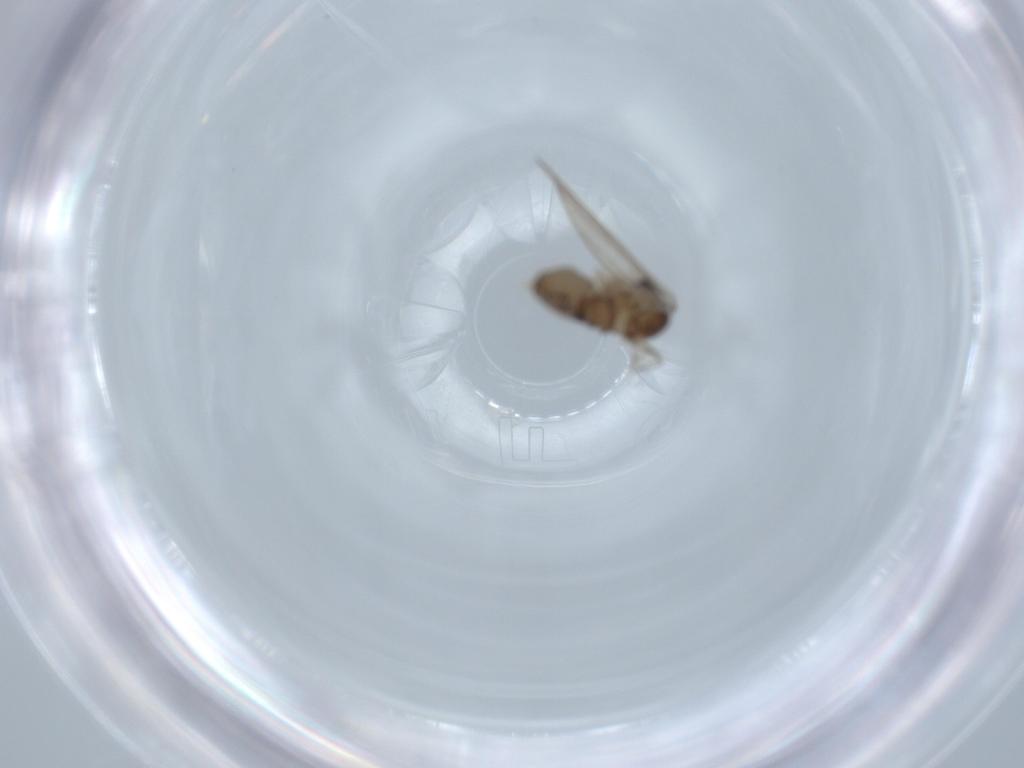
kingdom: Animalia
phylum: Arthropoda
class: Insecta
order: Diptera
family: Psychodidae
